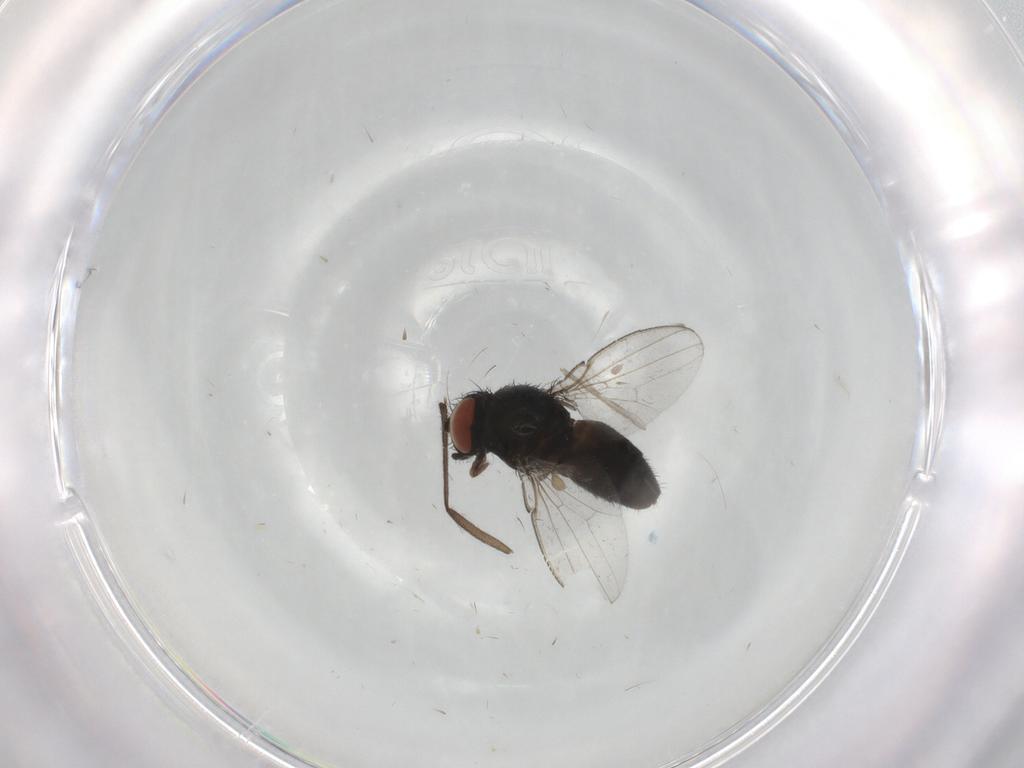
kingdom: Animalia
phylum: Arthropoda
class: Insecta
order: Diptera
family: Milichiidae
